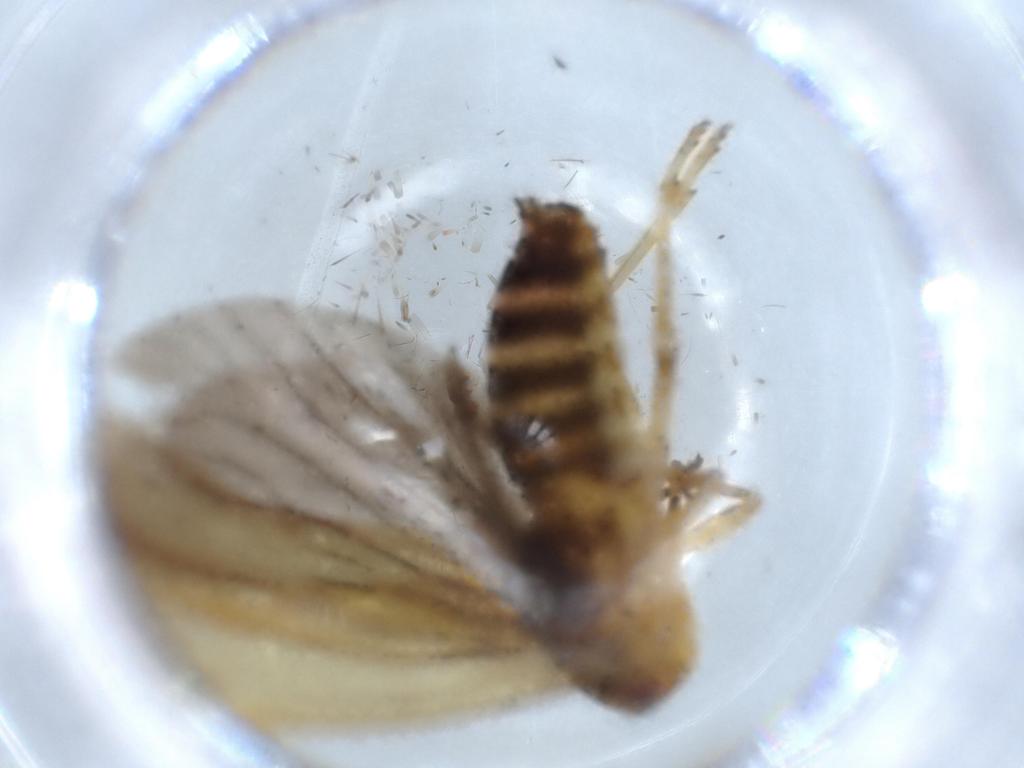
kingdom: Animalia
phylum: Arthropoda
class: Insecta
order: Hemiptera
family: Achilidae
